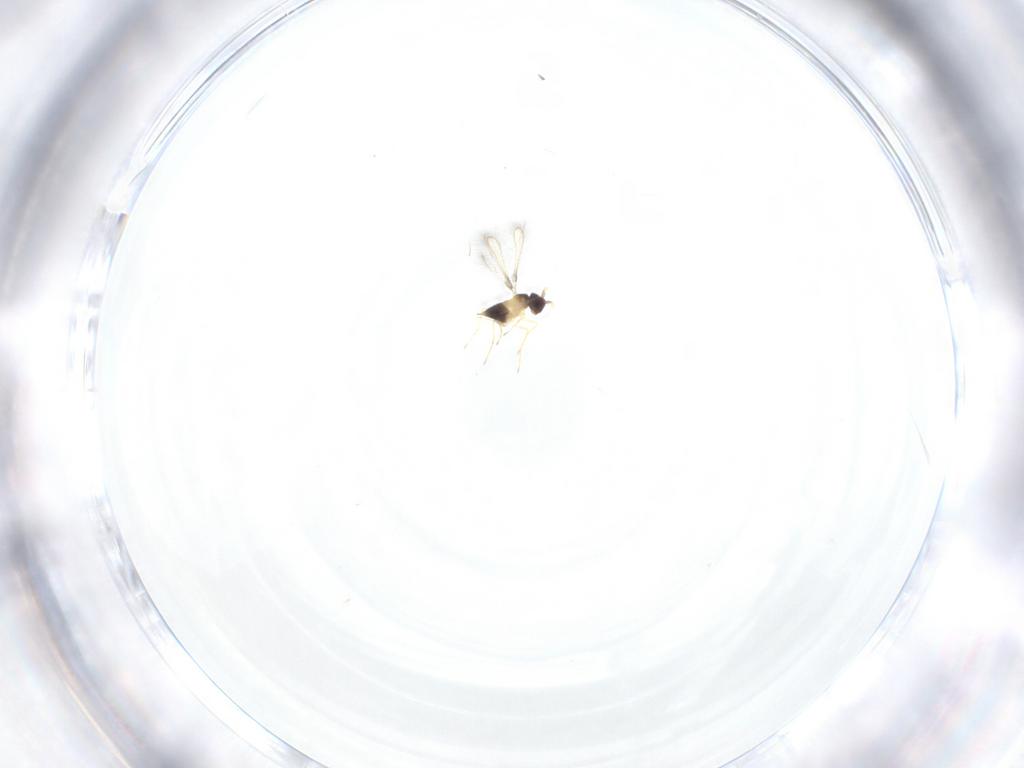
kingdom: Animalia
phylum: Arthropoda
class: Insecta
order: Hymenoptera
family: Mymaridae
